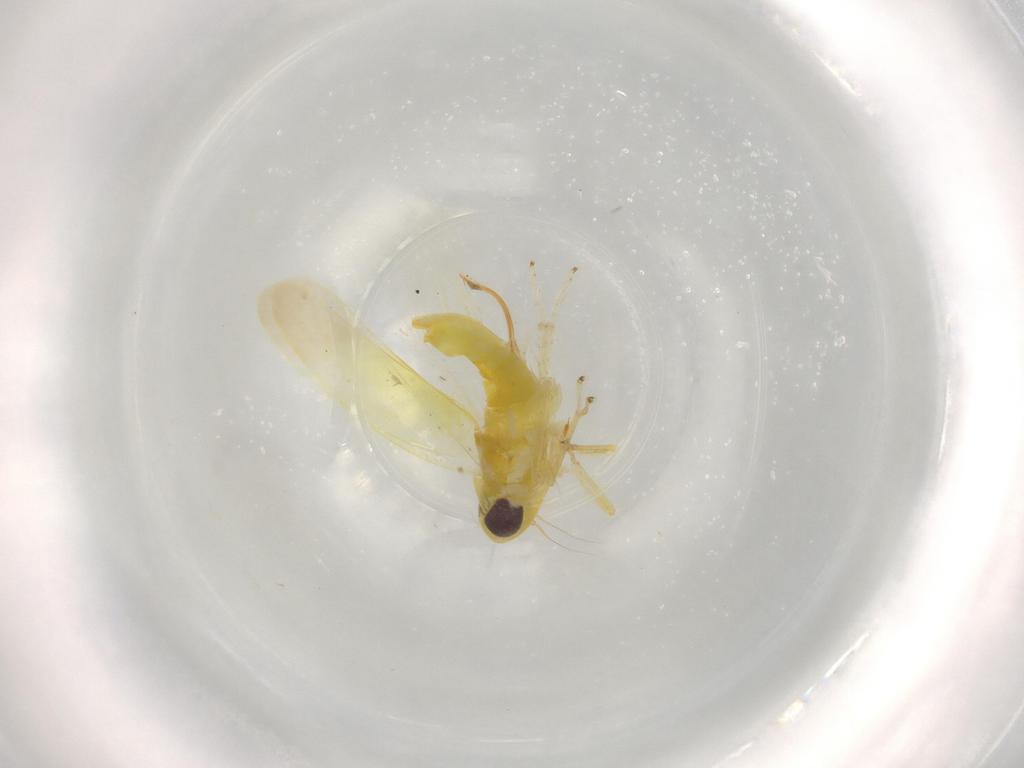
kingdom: Animalia
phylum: Arthropoda
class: Insecta
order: Hemiptera
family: Cicadellidae
